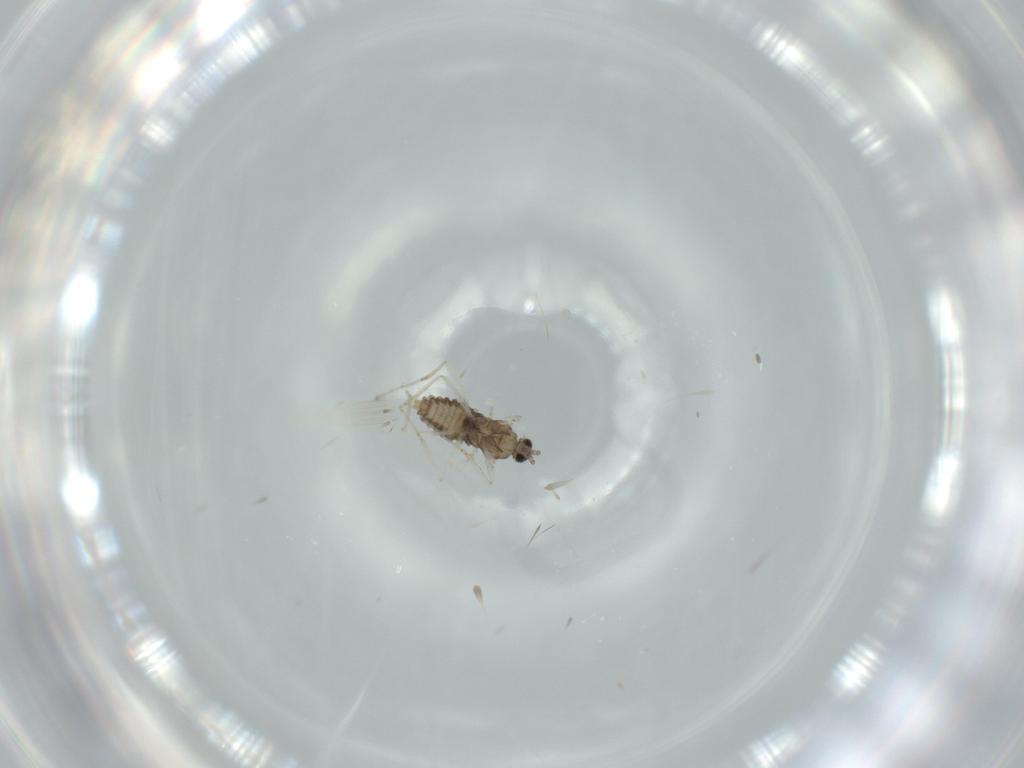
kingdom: Animalia
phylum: Arthropoda
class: Insecta
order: Diptera
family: Ceratopogonidae
